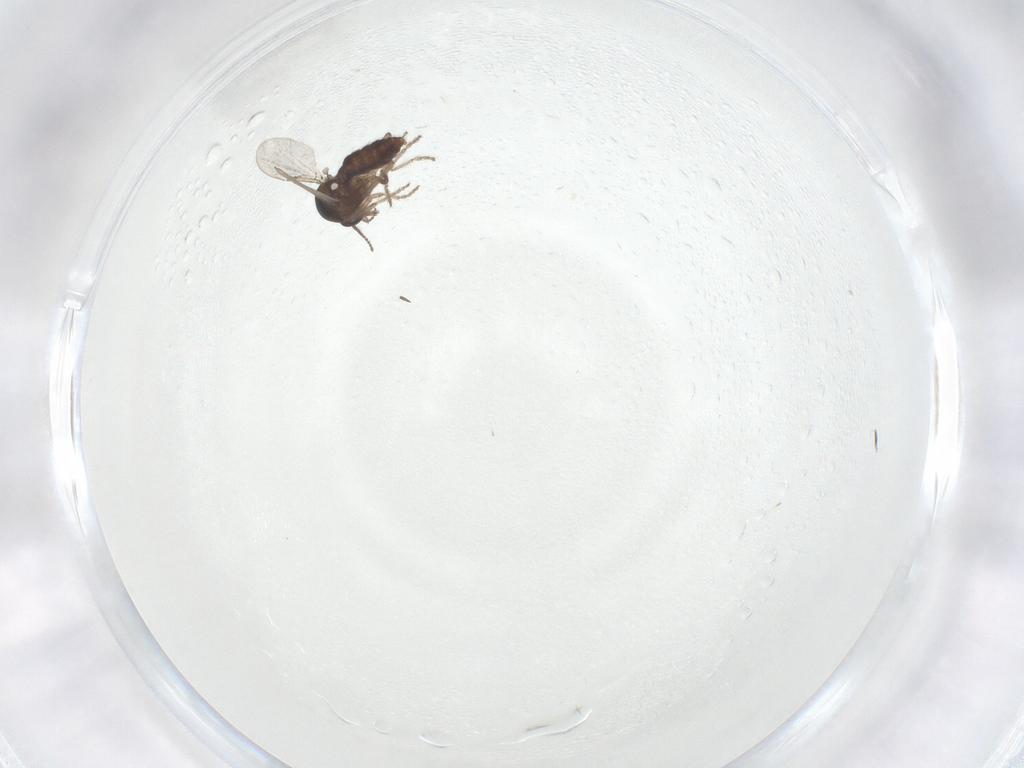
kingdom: Animalia
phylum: Arthropoda
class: Insecta
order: Diptera
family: Ceratopogonidae
